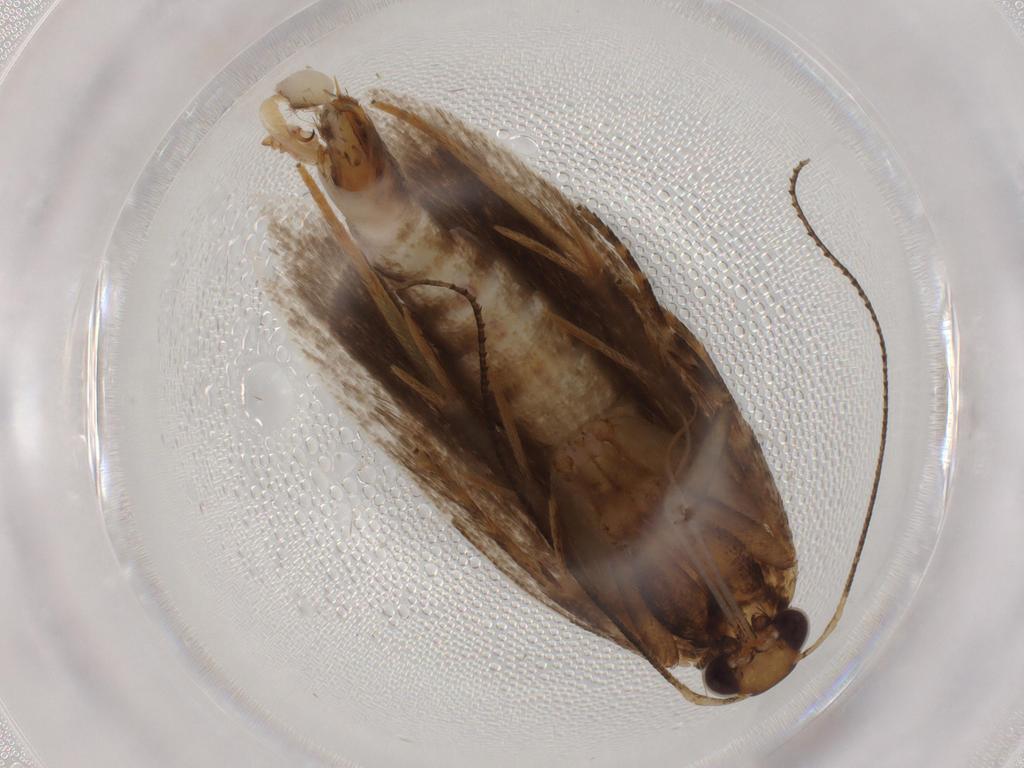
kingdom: Animalia
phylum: Arthropoda
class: Insecta
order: Lepidoptera
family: Gelechiidae
